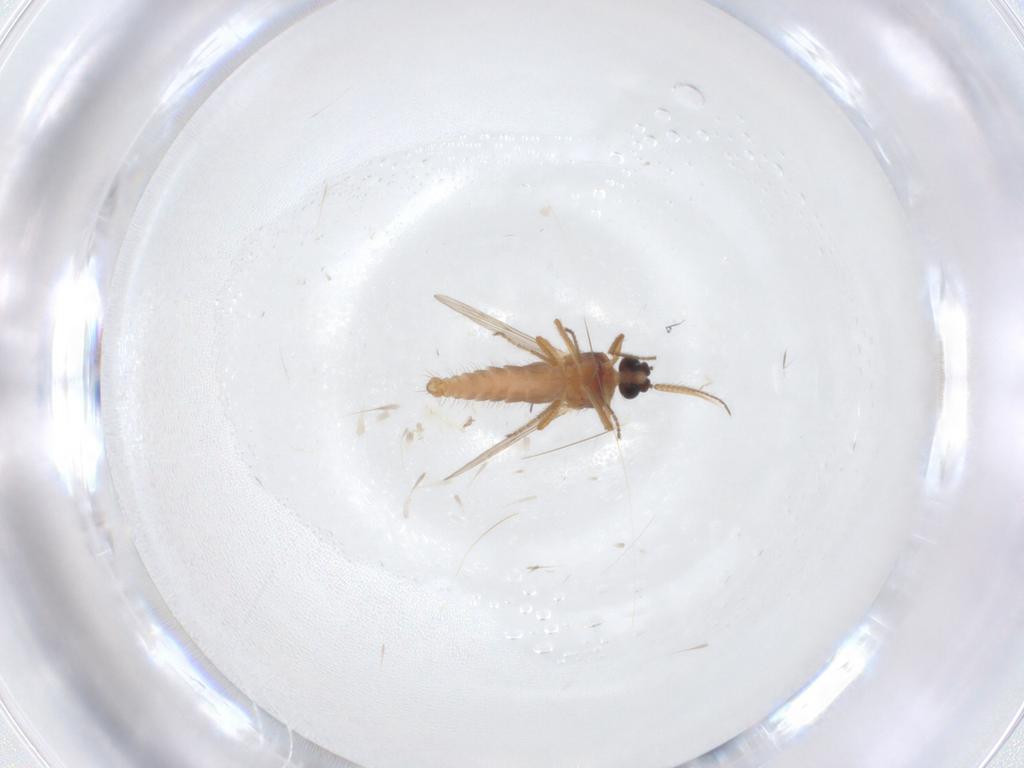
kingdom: Animalia
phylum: Arthropoda
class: Insecta
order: Diptera
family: Ceratopogonidae
